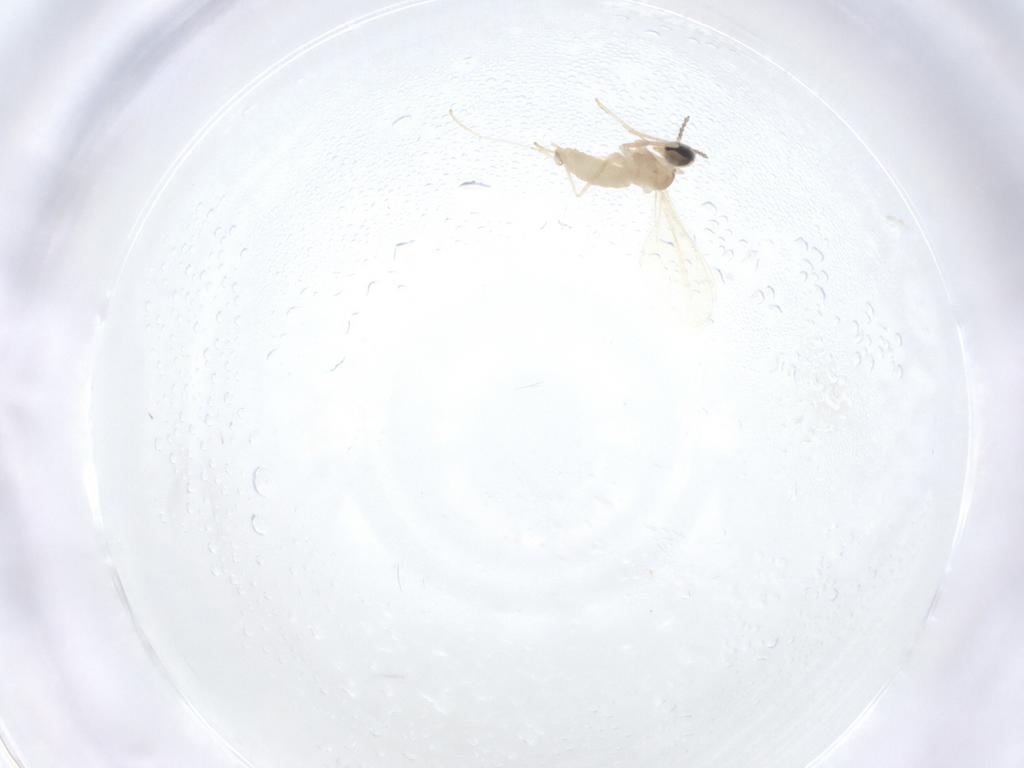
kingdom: Animalia
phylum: Arthropoda
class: Insecta
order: Diptera
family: Cecidomyiidae
